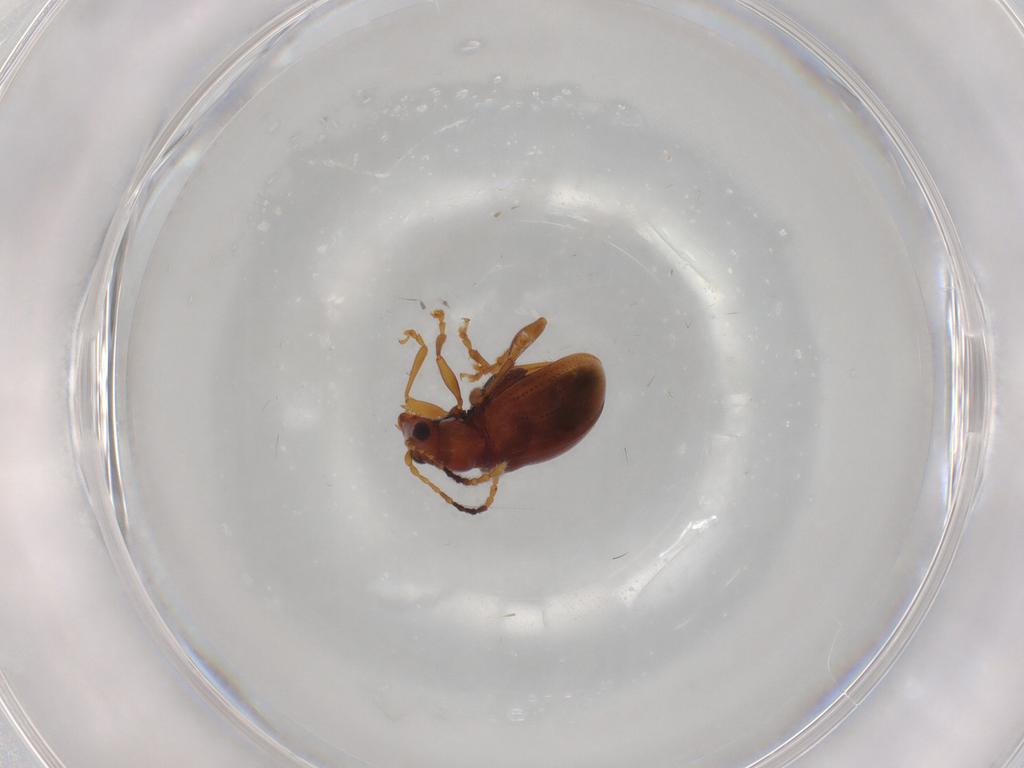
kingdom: Animalia
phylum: Arthropoda
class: Insecta
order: Coleoptera
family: Chrysomelidae
